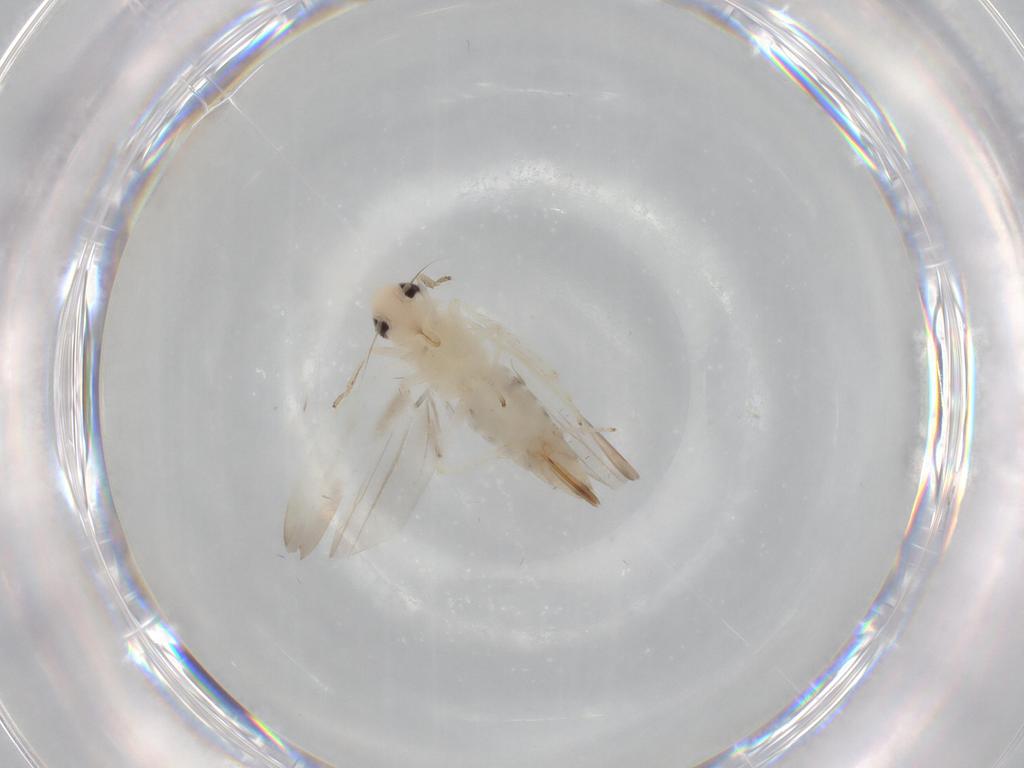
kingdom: Animalia
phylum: Arthropoda
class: Insecta
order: Hemiptera
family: Cicadellidae
